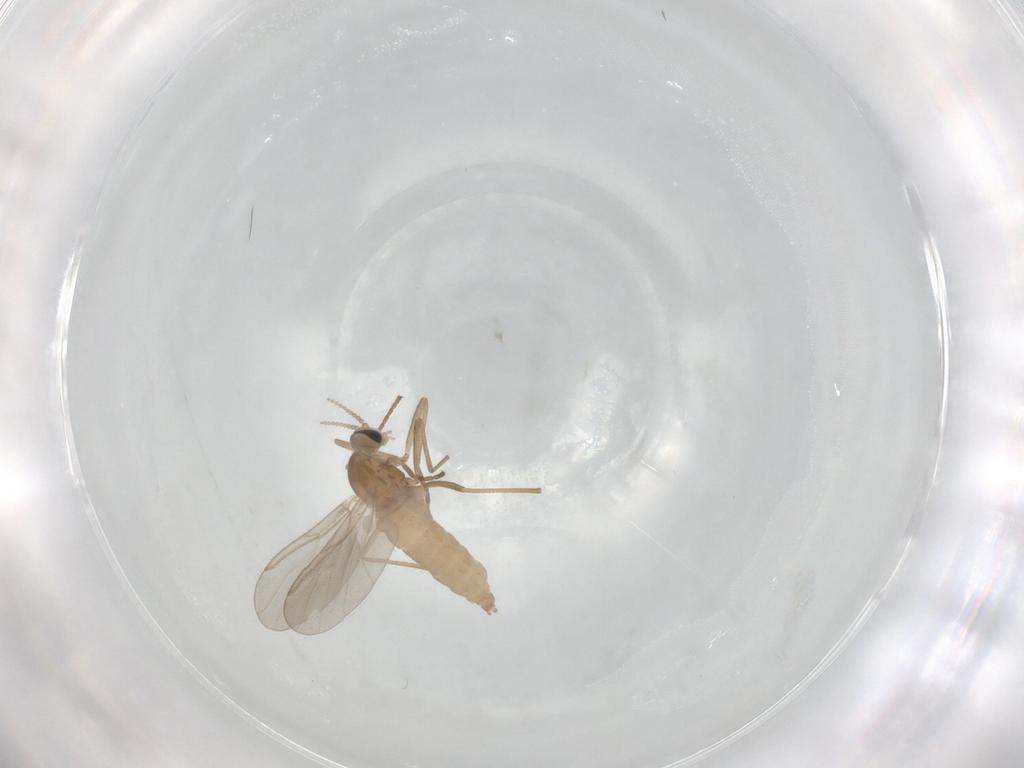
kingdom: Animalia
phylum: Arthropoda
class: Insecta
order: Diptera
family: Cecidomyiidae
